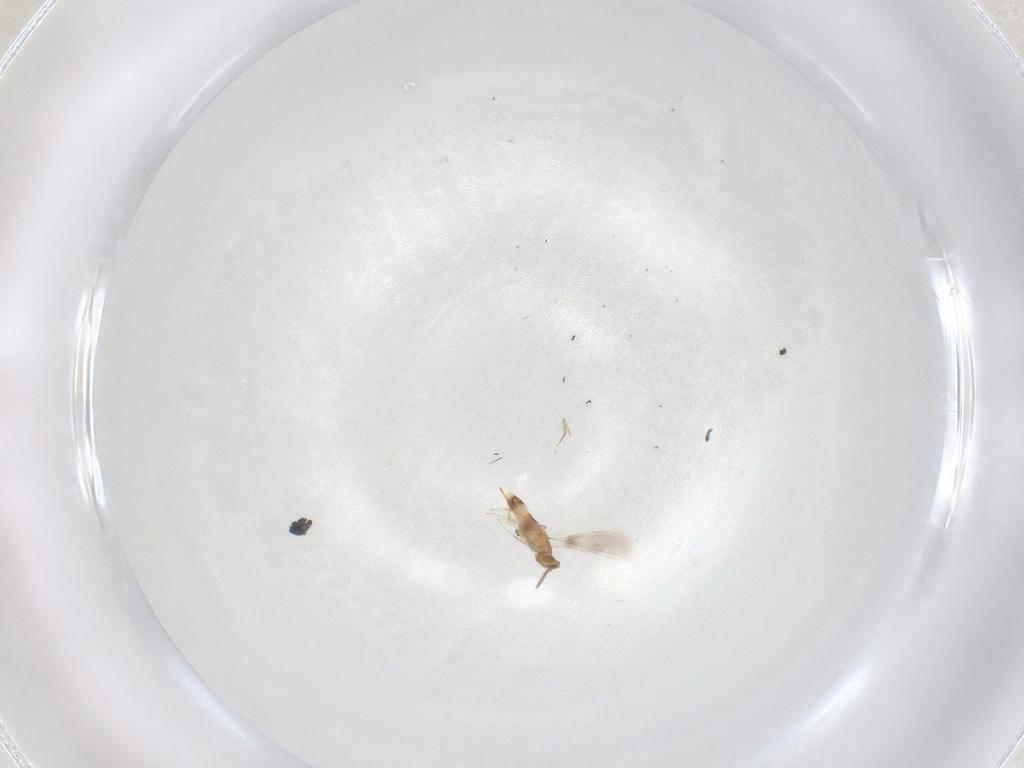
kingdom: Animalia
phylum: Arthropoda
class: Insecta
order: Hymenoptera
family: Aphelinidae
